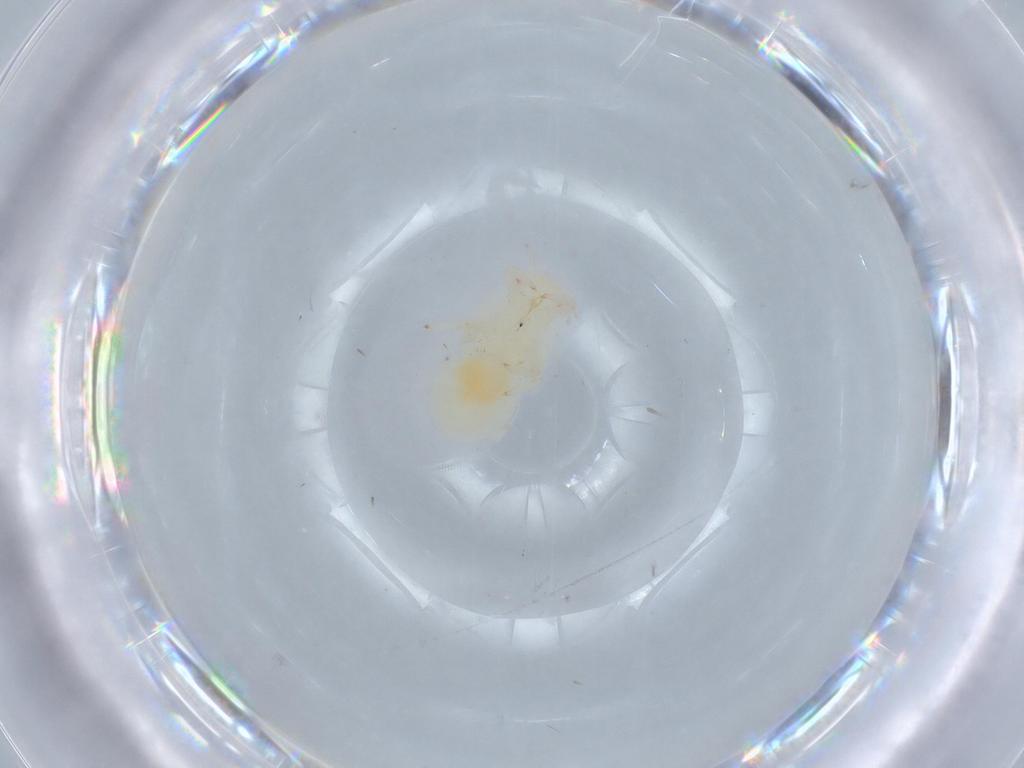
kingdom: Animalia
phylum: Arthropoda
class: Insecta
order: Diptera
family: Cecidomyiidae
